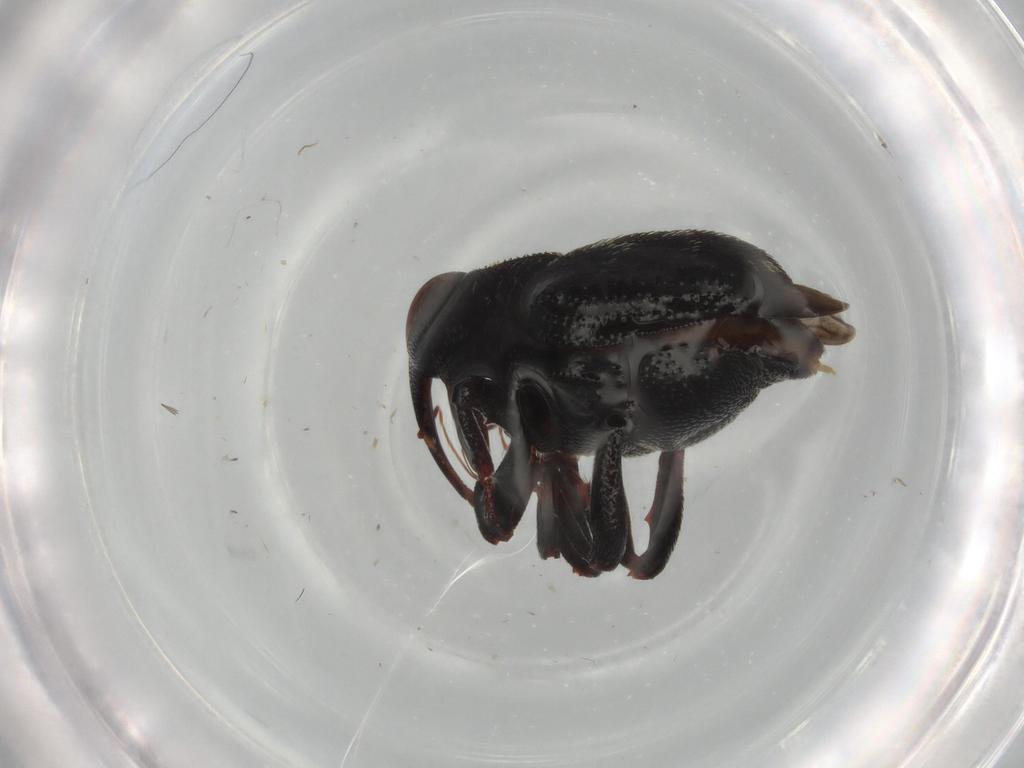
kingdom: Animalia
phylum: Arthropoda
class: Insecta
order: Coleoptera
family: Curculionidae
